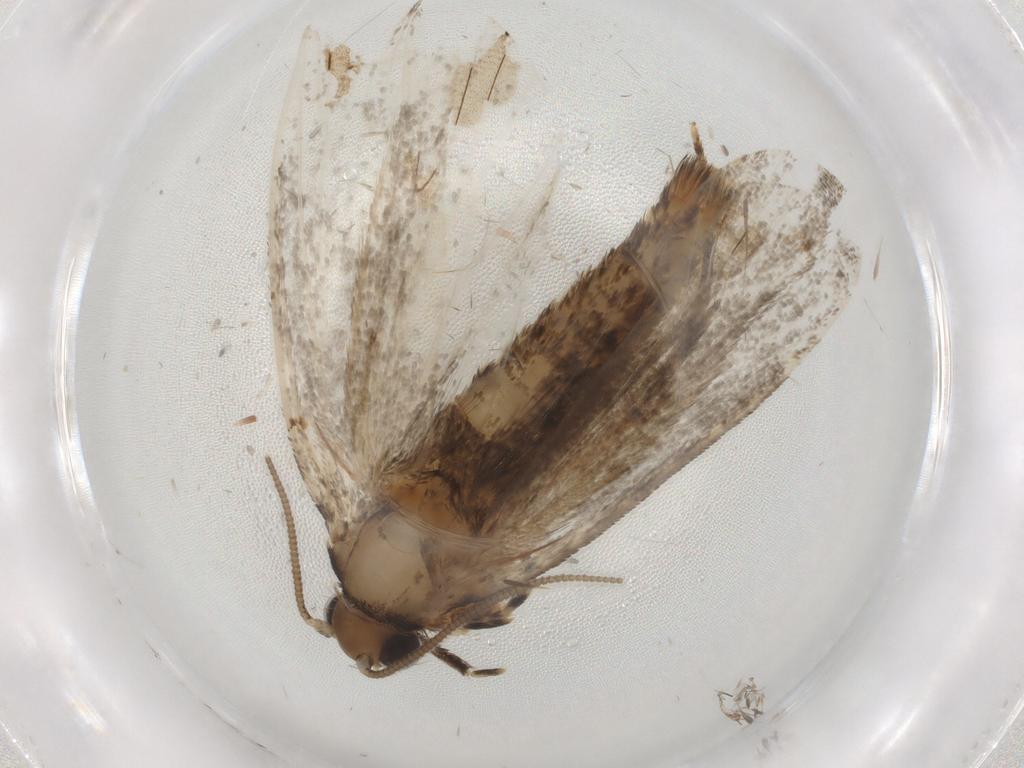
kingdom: Animalia
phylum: Arthropoda
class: Insecta
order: Lepidoptera
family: Tineidae
